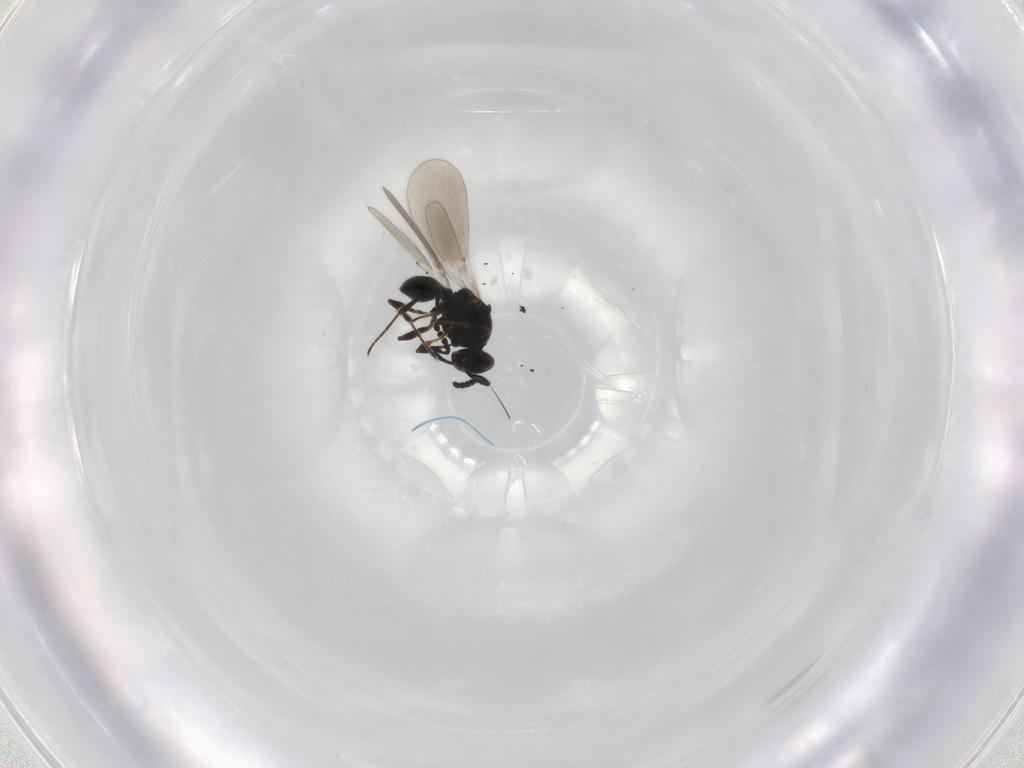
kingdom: Animalia
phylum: Arthropoda
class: Insecta
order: Hymenoptera
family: Platygastridae
